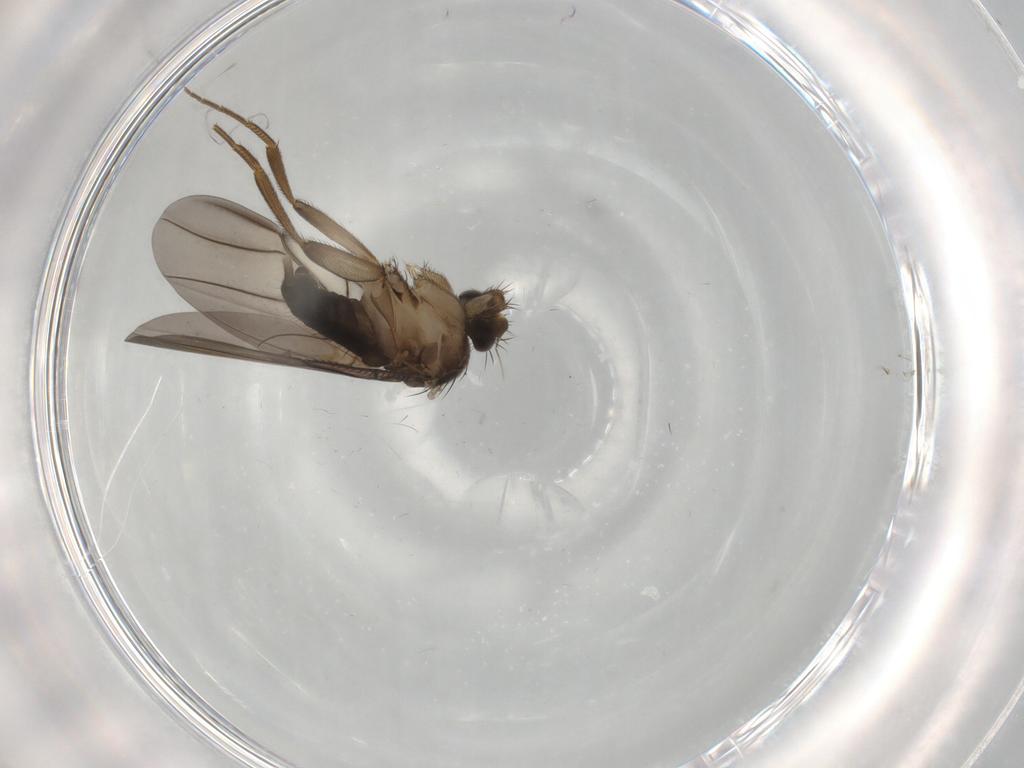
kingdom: Animalia
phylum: Arthropoda
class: Insecta
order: Diptera
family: Phoridae
